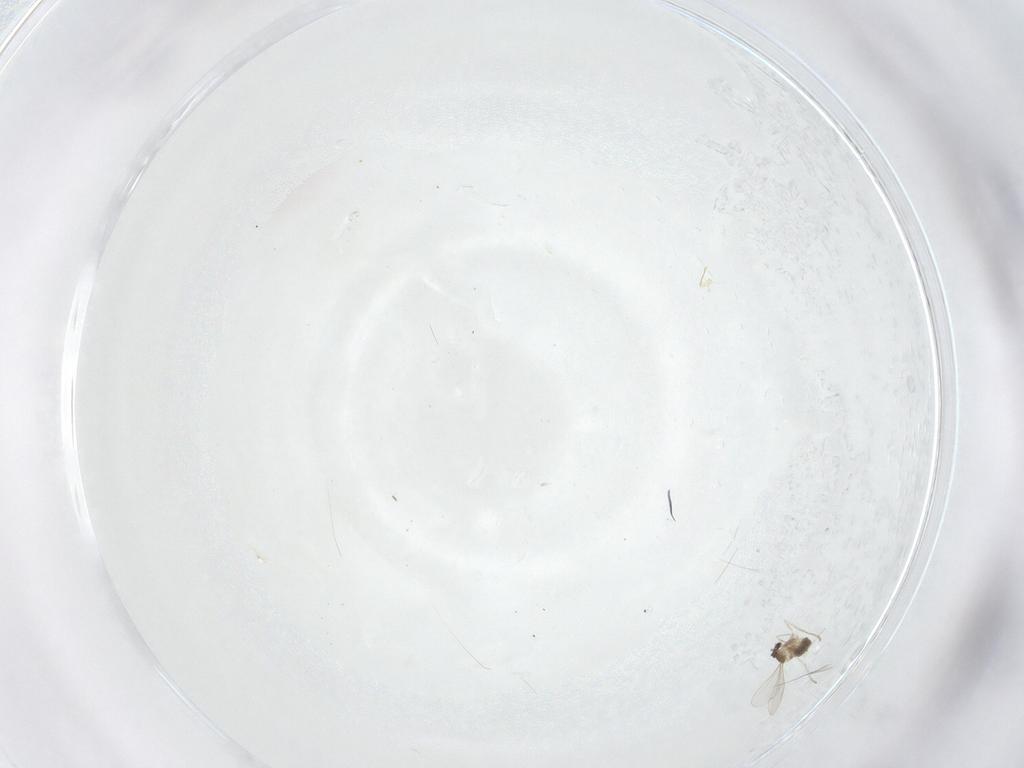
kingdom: Animalia
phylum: Arthropoda
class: Insecta
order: Diptera
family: Cecidomyiidae
